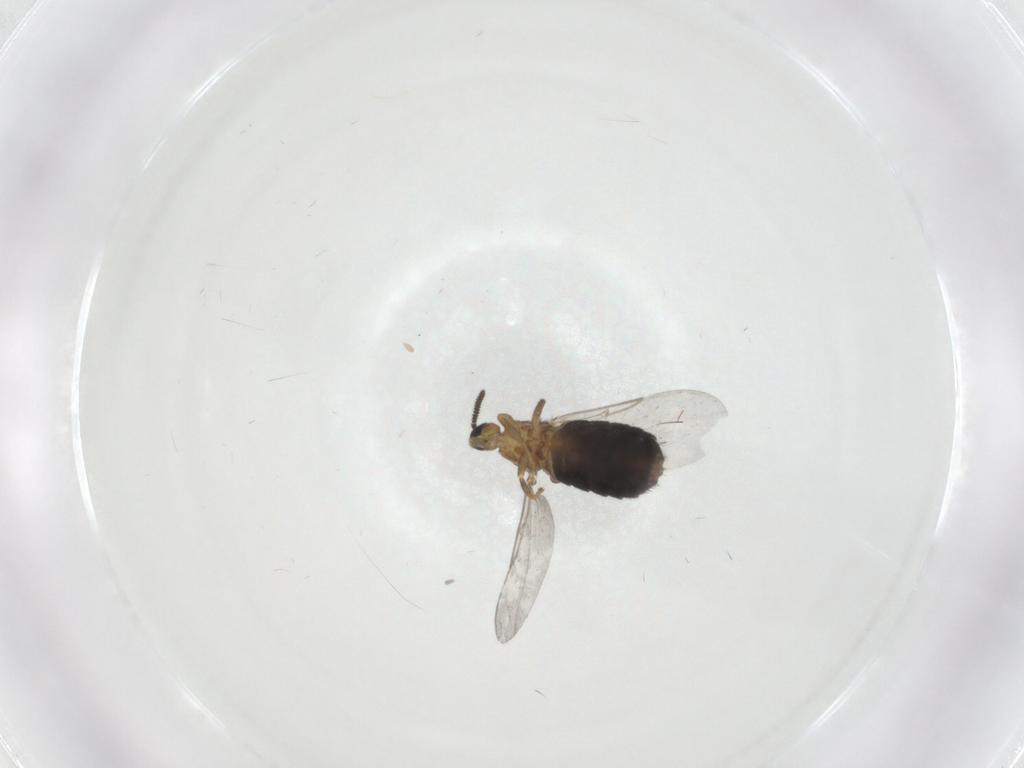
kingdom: Animalia
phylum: Arthropoda
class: Insecta
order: Diptera
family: Scatopsidae
